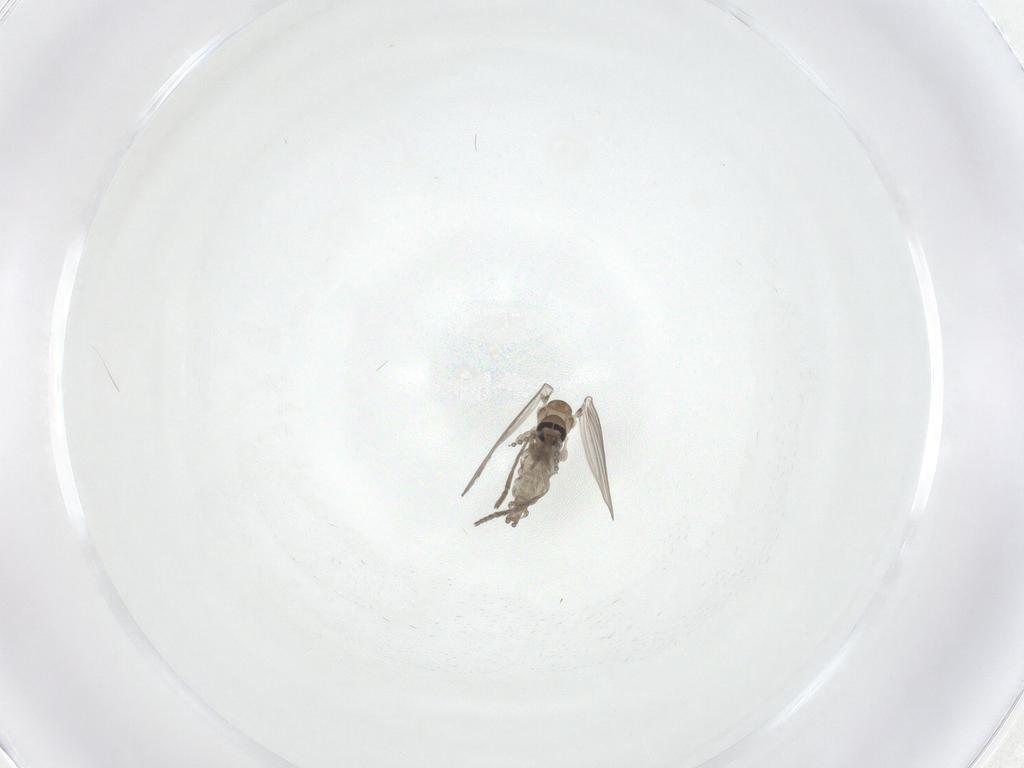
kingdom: Animalia
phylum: Arthropoda
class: Insecta
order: Diptera
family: Psychodidae
